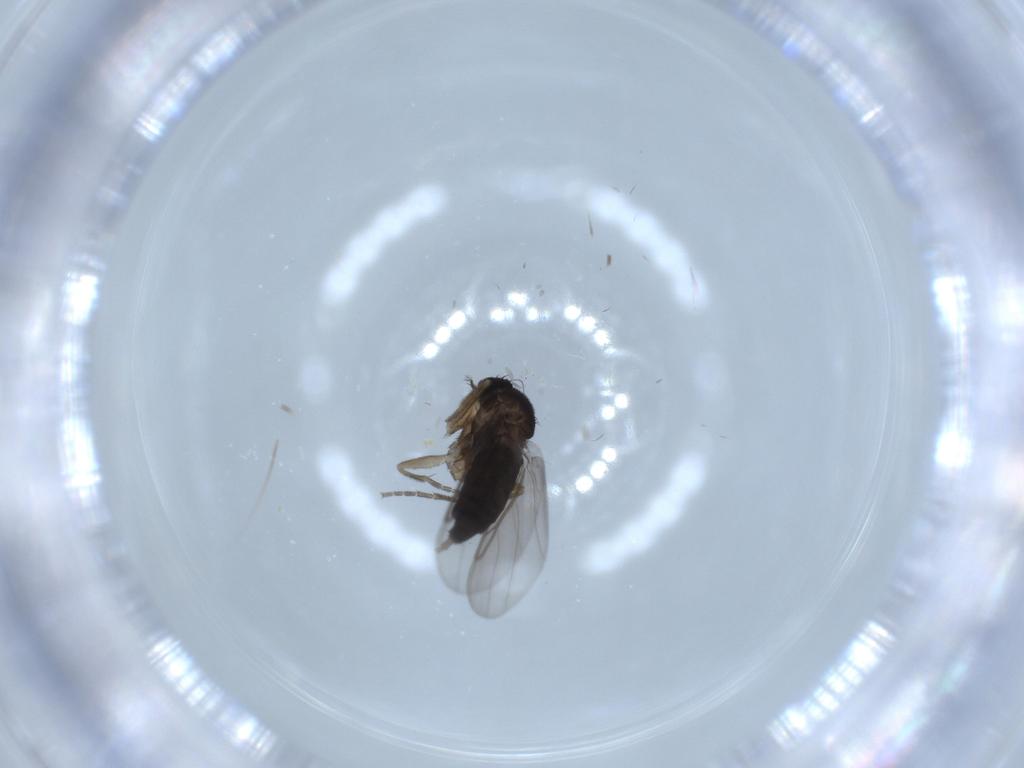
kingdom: Animalia
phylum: Arthropoda
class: Insecta
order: Diptera
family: Phoridae
